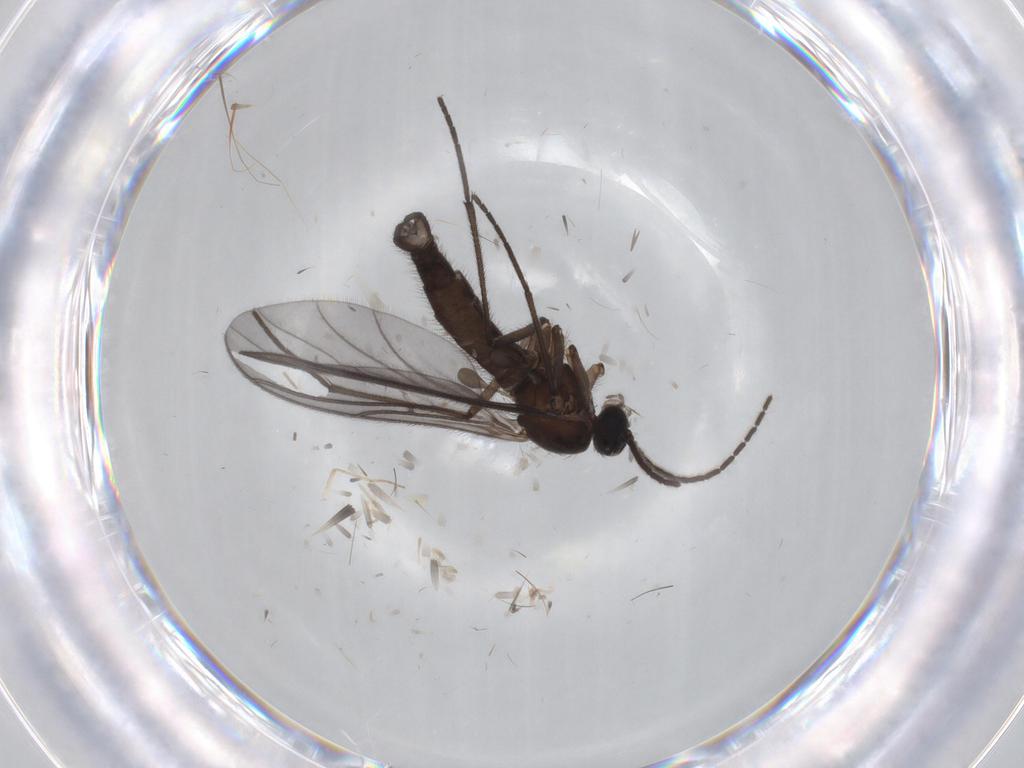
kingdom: Animalia
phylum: Arthropoda
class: Insecta
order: Diptera
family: Sciaridae
